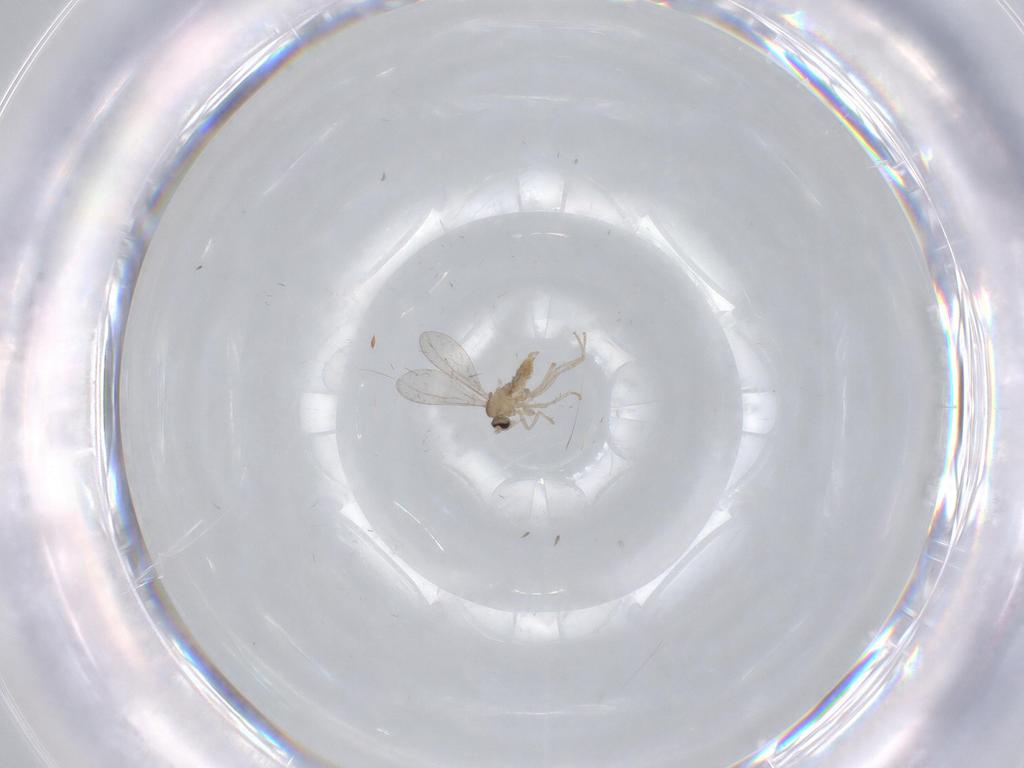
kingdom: Animalia
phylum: Arthropoda
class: Insecta
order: Diptera
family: Cecidomyiidae
